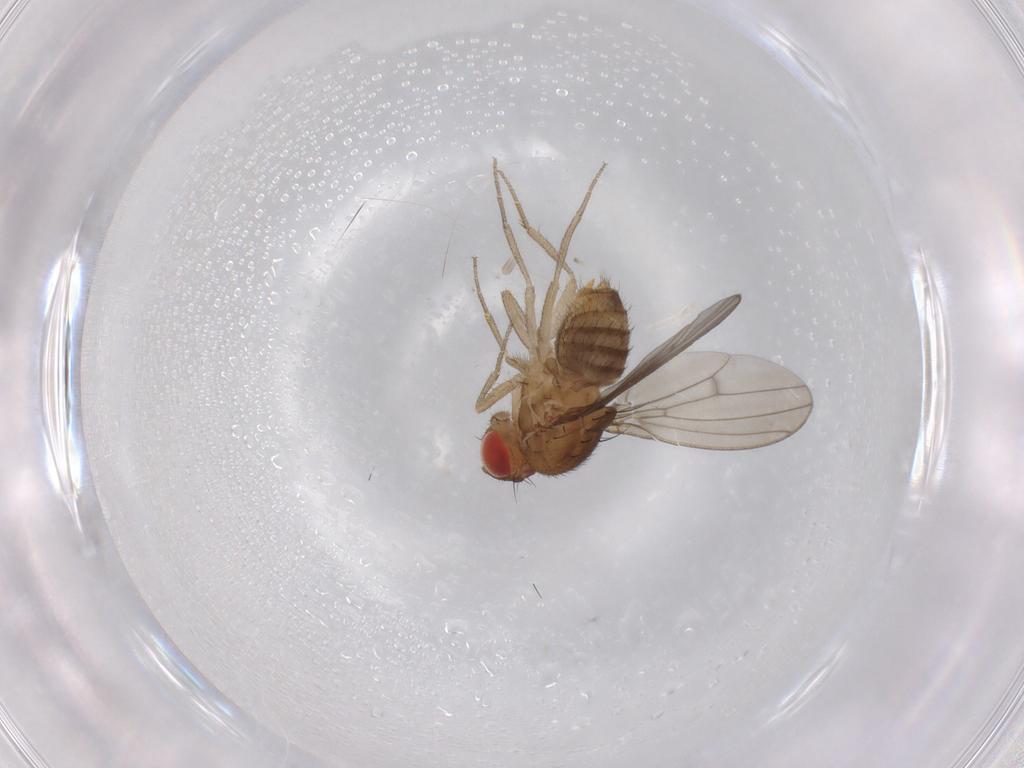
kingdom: Animalia
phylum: Arthropoda
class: Insecta
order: Diptera
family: Drosophilidae
